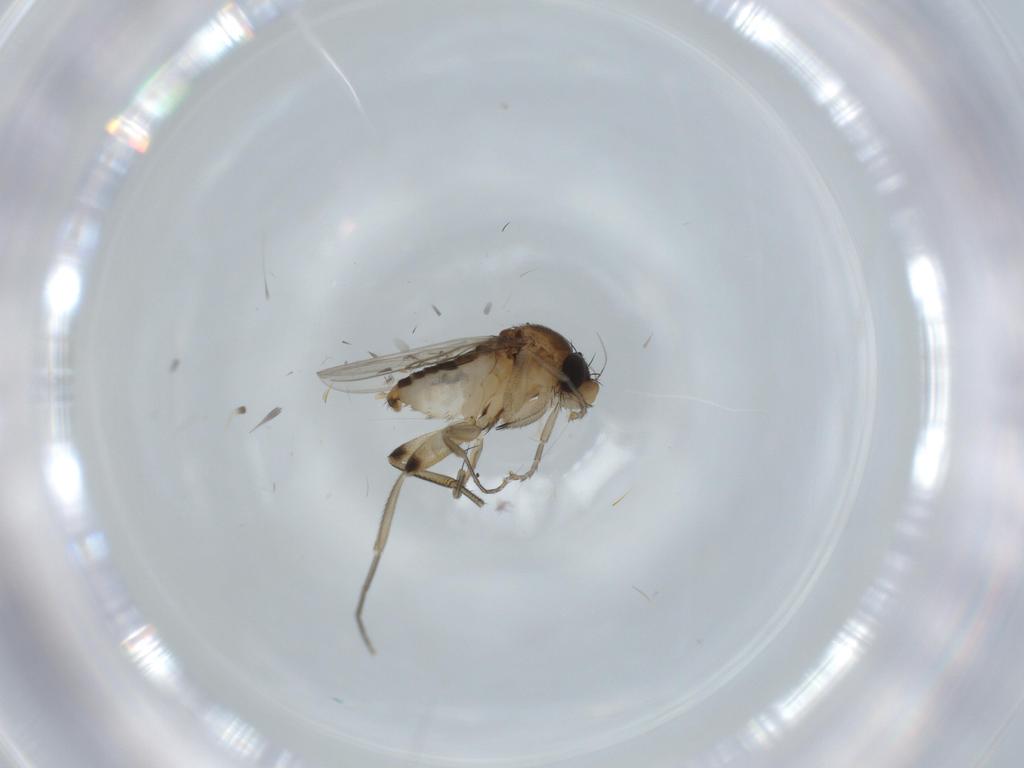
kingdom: Animalia
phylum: Arthropoda
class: Insecta
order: Diptera
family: Phoridae
